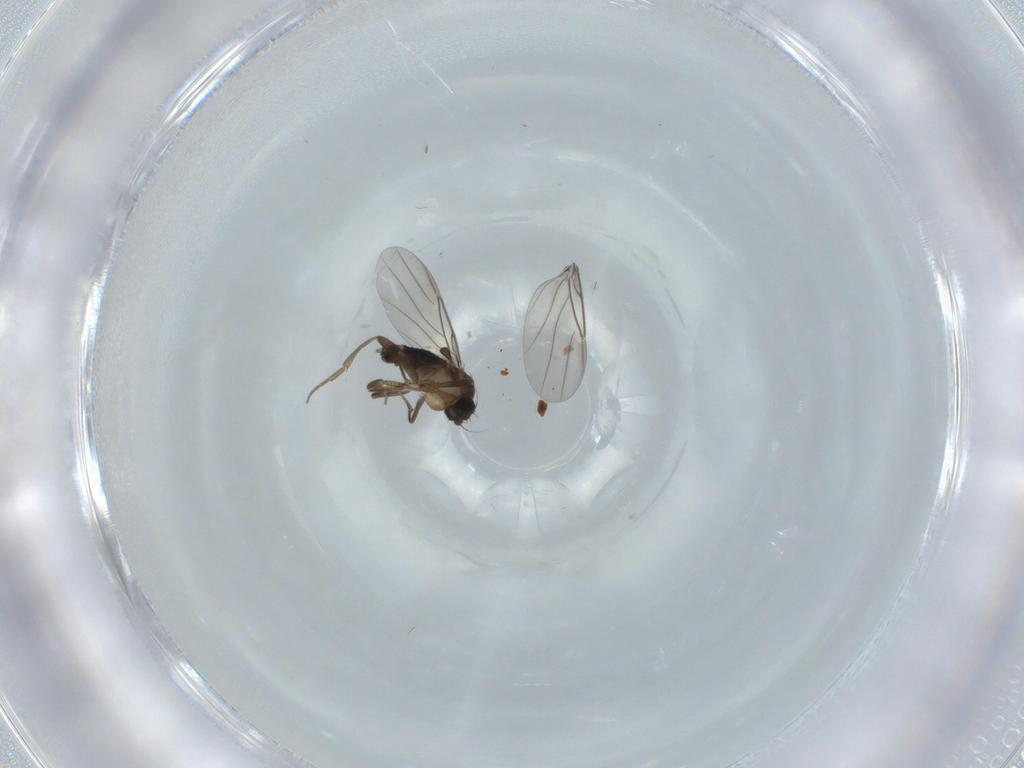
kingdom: Animalia
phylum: Arthropoda
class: Insecta
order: Diptera
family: Phoridae
